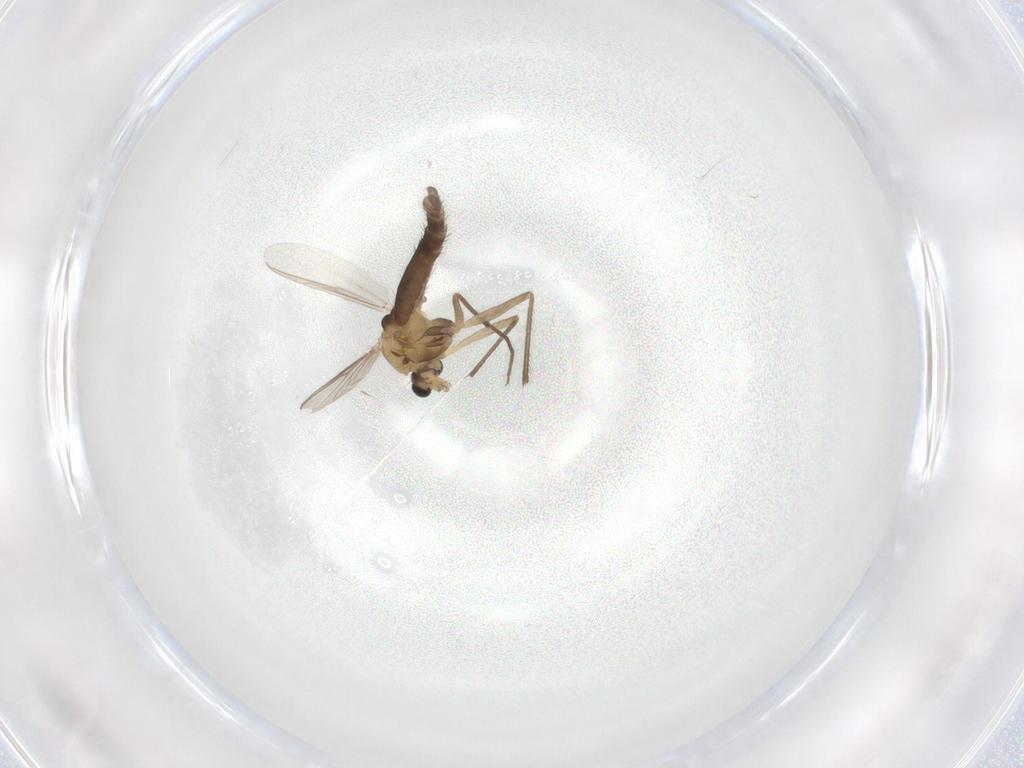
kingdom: Animalia
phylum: Arthropoda
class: Insecta
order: Diptera
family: Chironomidae
